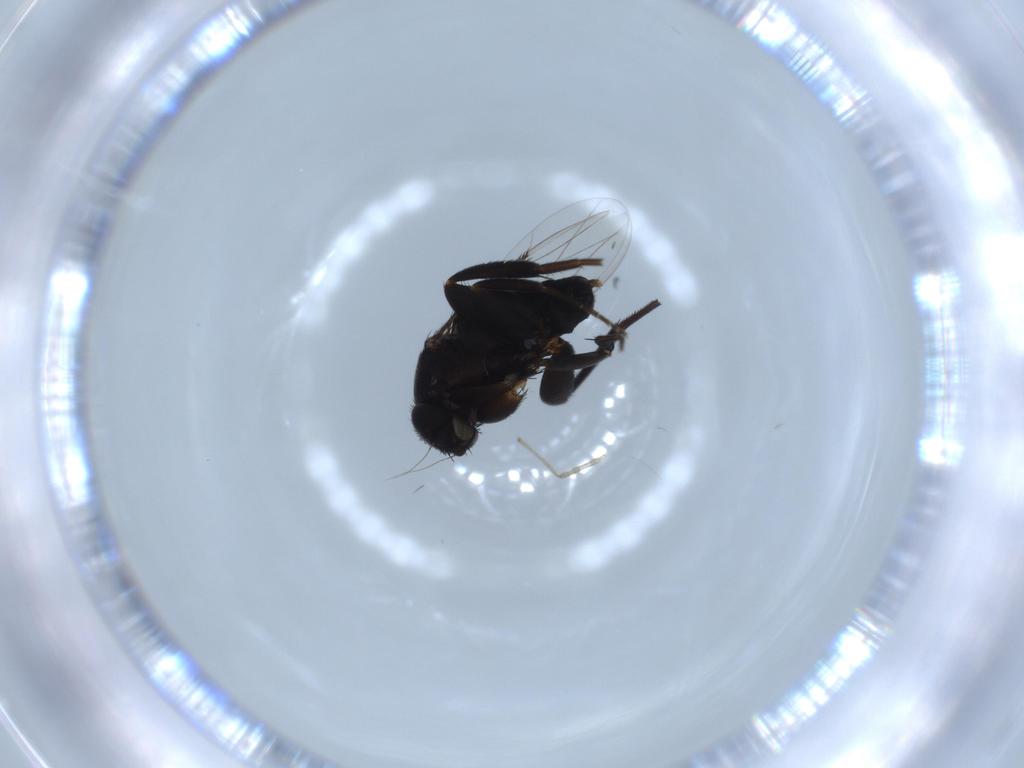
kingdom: Animalia
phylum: Arthropoda
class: Insecta
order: Diptera
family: Phoridae
